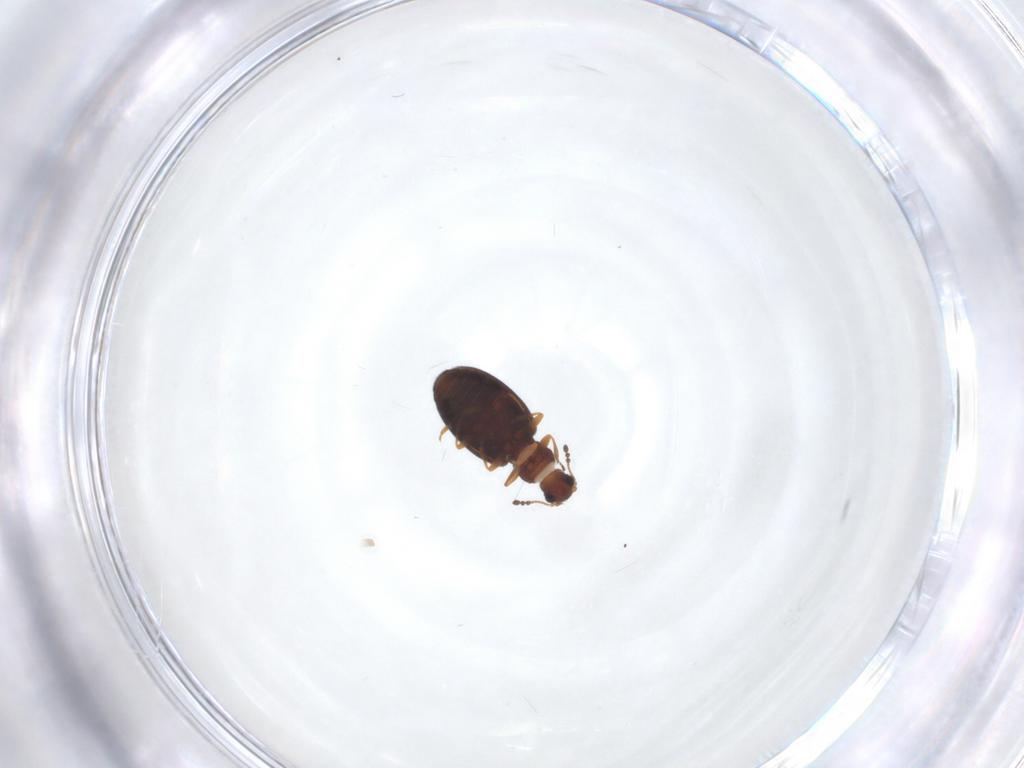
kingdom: Animalia
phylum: Arthropoda
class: Insecta
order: Coleoptera
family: Latridiidae
